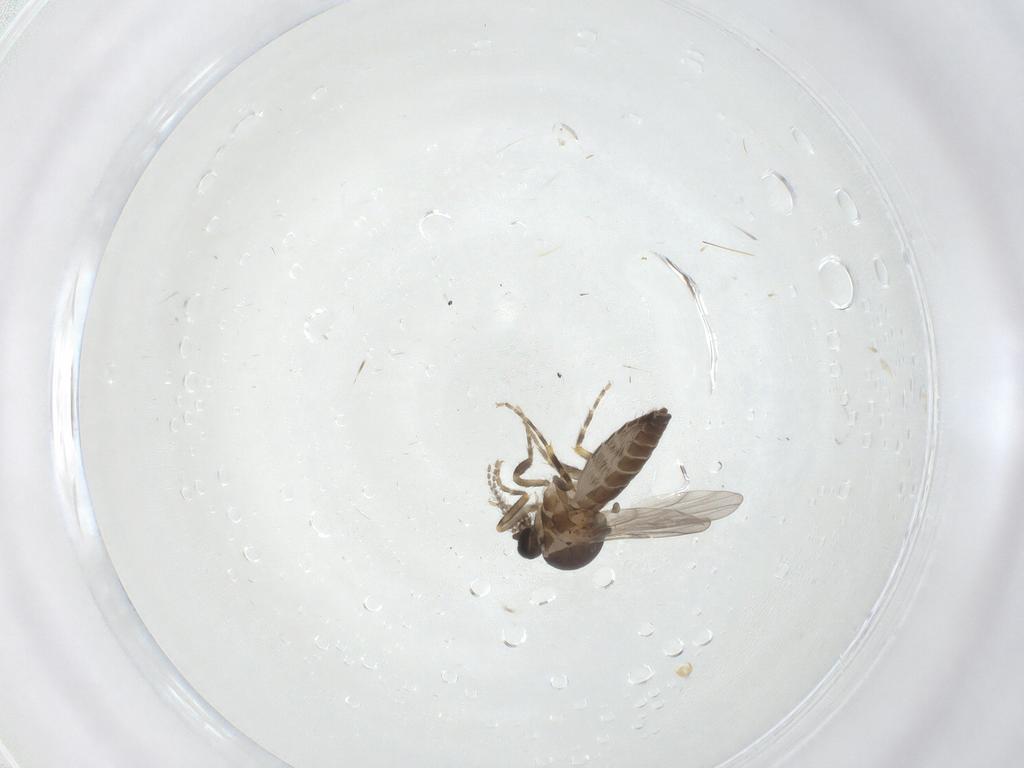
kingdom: Animalia
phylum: Arthropoda
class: Insecta
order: Diptera
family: Ceratopogonidae
